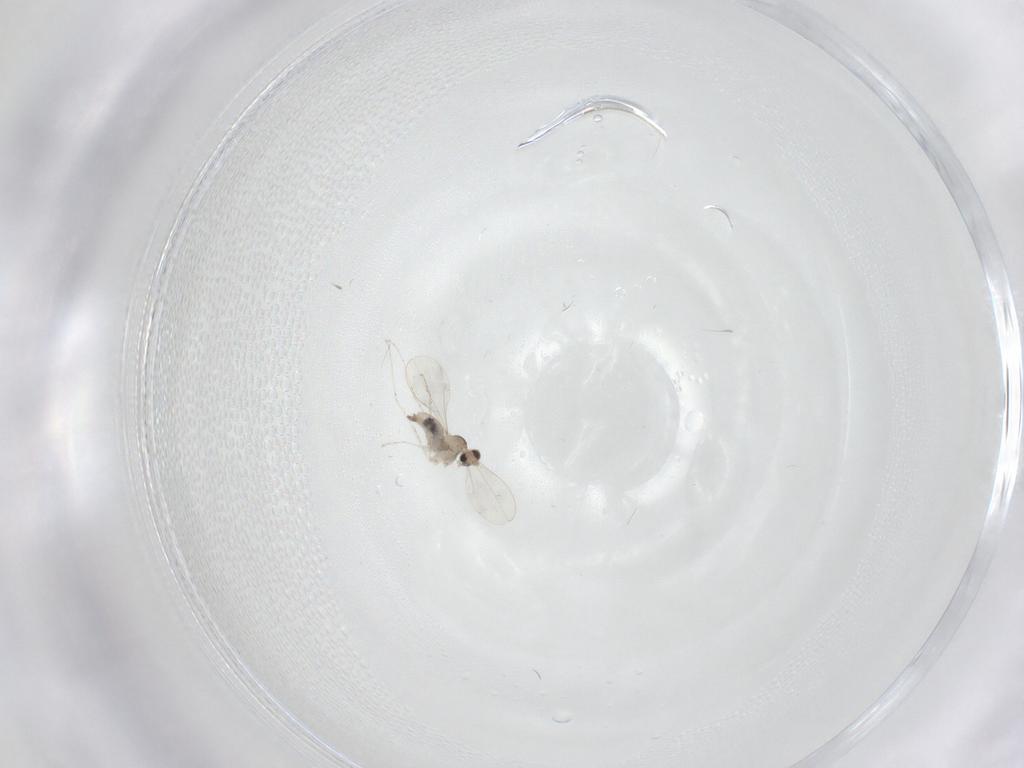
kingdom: Animalia
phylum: Arthropoda
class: Insecta
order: Diptera
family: Cecidomyiidae
